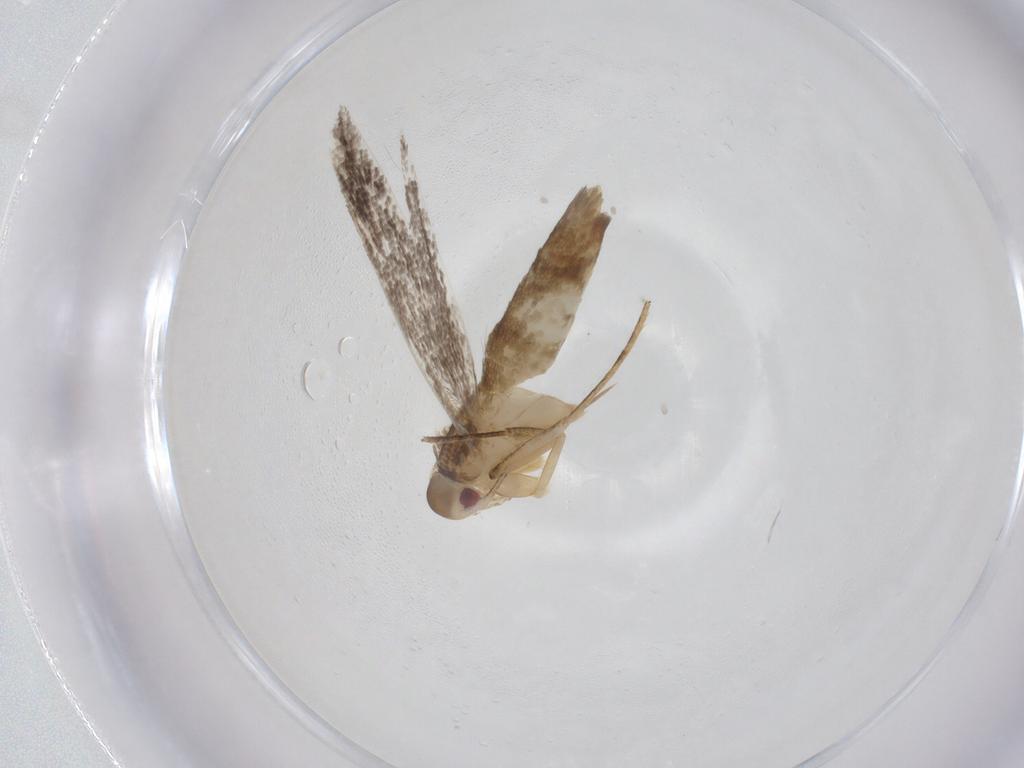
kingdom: Animalia
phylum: Arthropoda
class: Insecta
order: Lepidoptera
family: Cosmopterigidae
